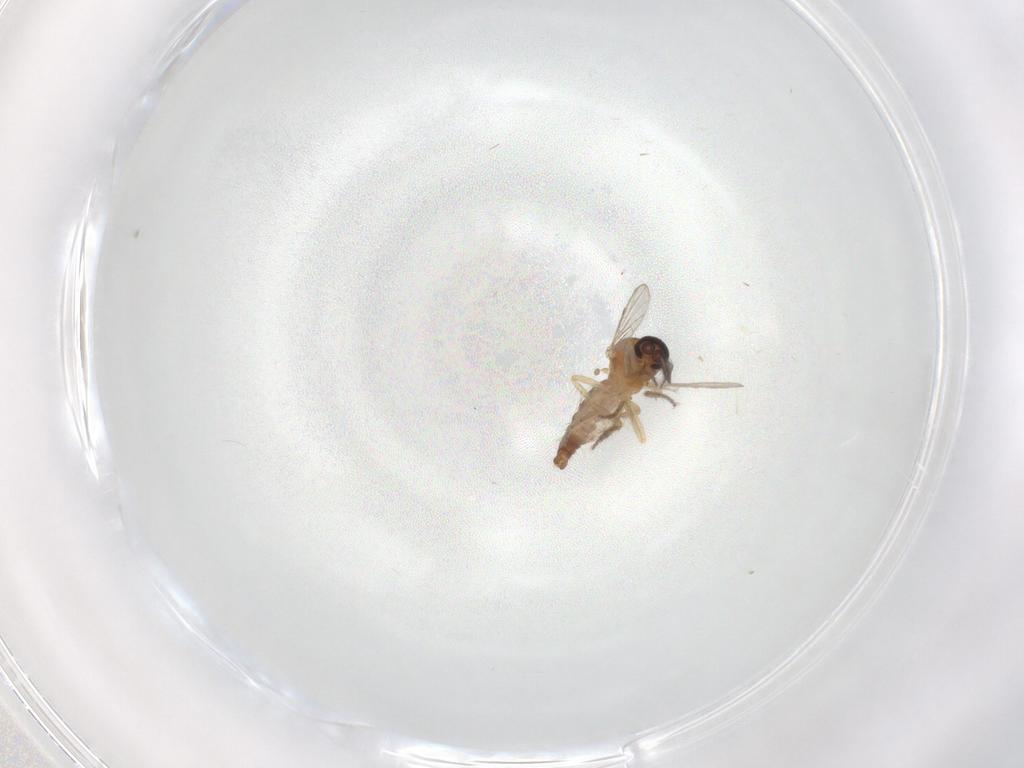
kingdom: Animalia
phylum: Arthropoda
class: Insecta
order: Diptera
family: Ceratopogonidae
